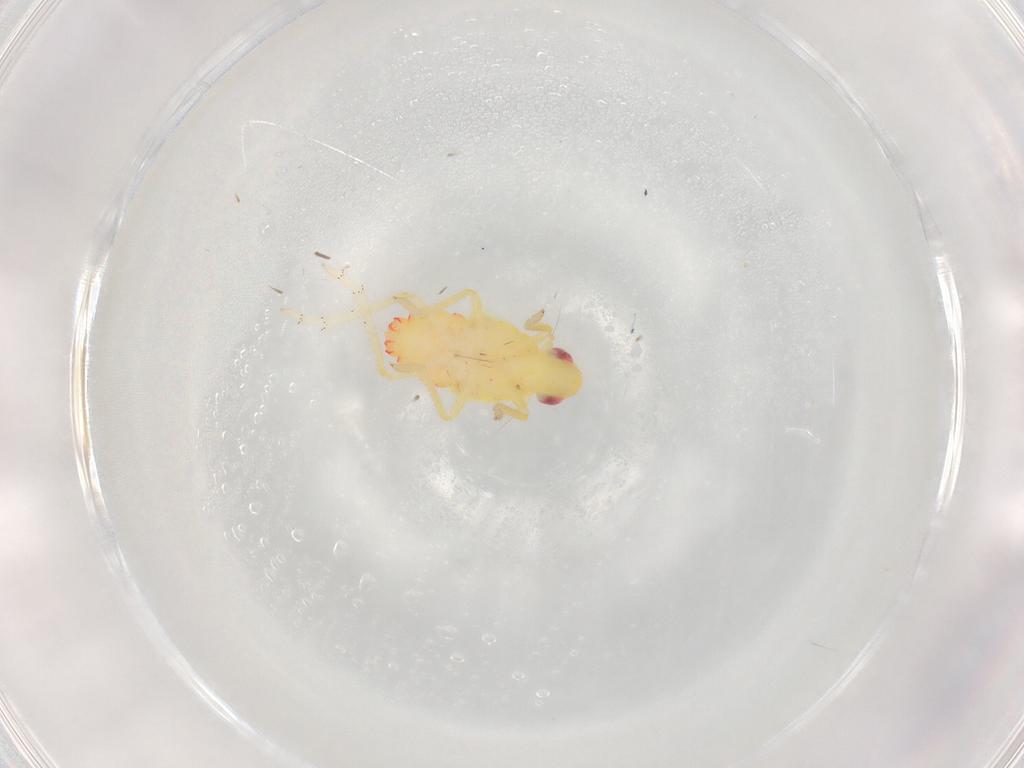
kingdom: Animalia
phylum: Arthropoda
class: Insecta
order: Hemiptera
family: Tropiduchidae
